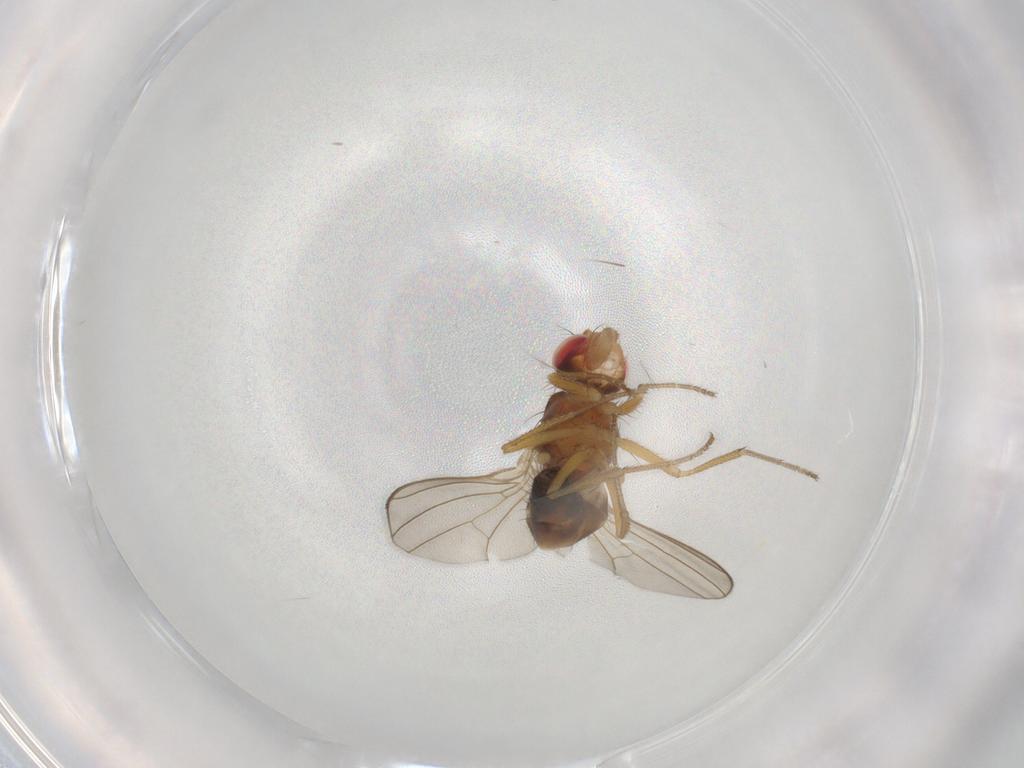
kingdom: Animalia
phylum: Arthropoda
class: Insecta
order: Diptera
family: Drosophilidae
